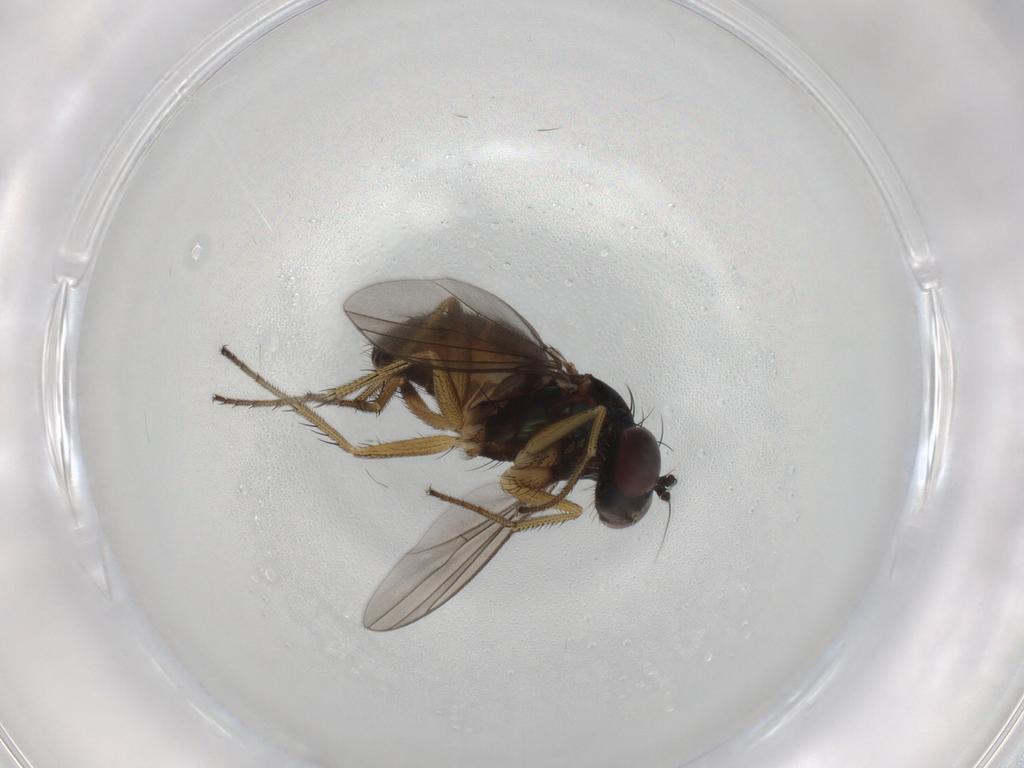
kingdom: Animalia
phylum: Arthropoda
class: Insecta
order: Diptera
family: Dolichopodidae
